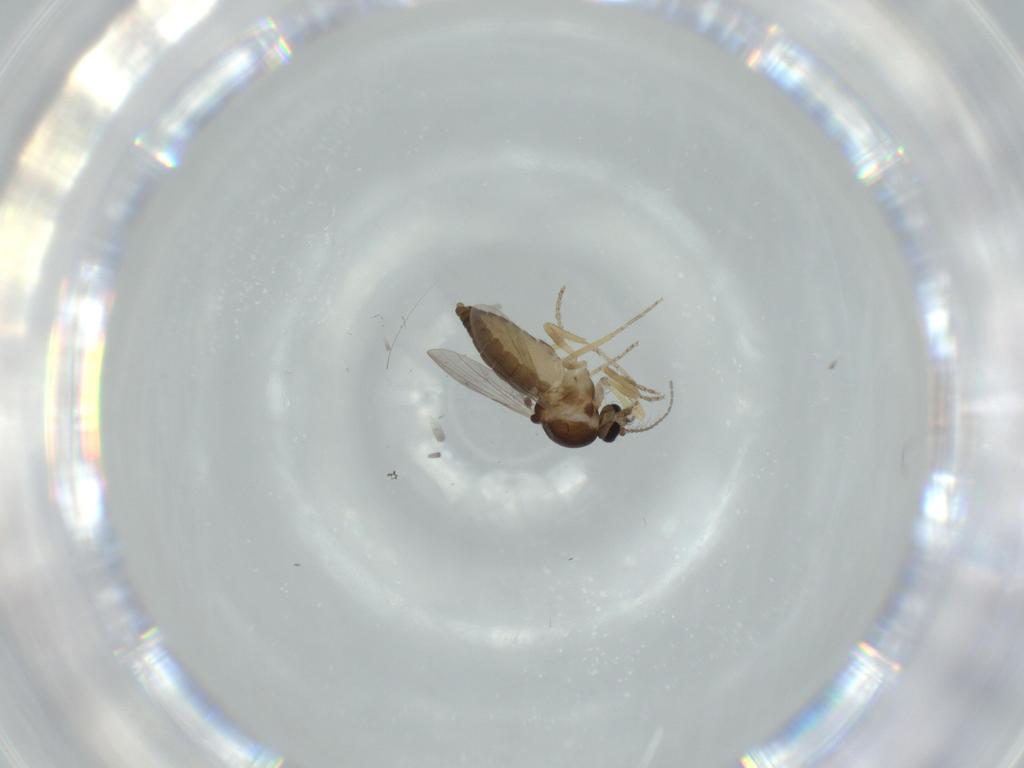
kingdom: Animalia
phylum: Arthropoda
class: Insecta
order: Diptera
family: Ceratopogonidae
